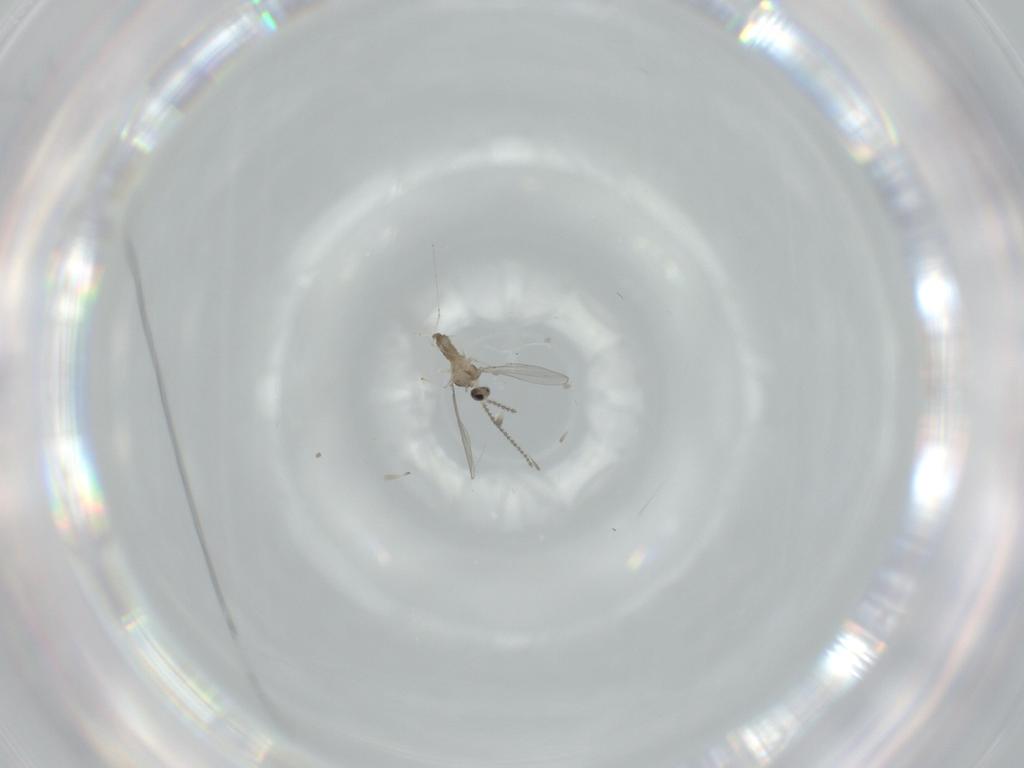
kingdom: Animalia
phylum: Arthropoda
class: Insecta
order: Diptera
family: Cecidomyiidae
